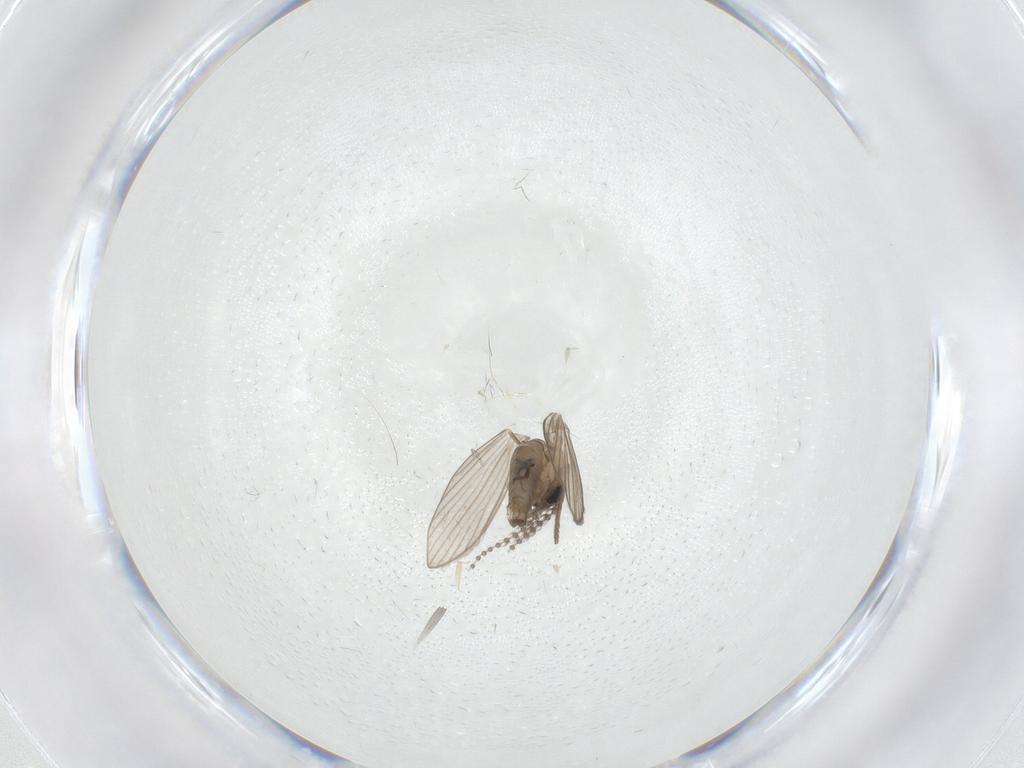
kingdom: Animalia
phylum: Arthropoda
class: Insecta
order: Diptera
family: Psychodidae
